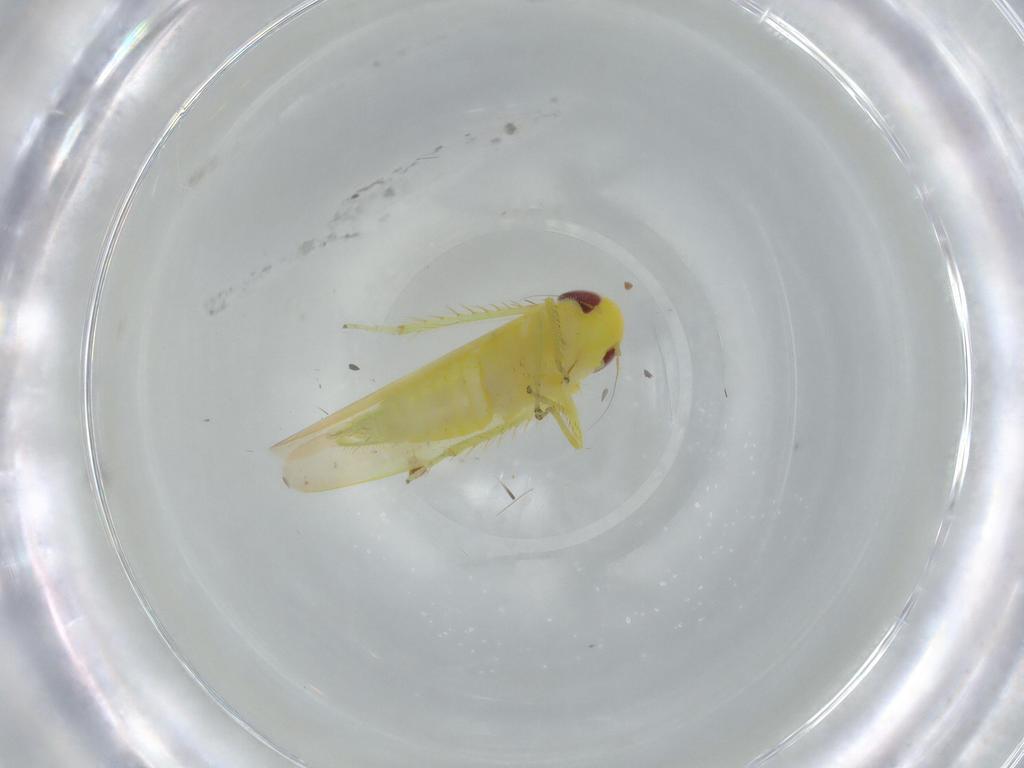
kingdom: Animalia
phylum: Arthropoda
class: Insecta
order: Hemiptera
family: Cicadellidae
